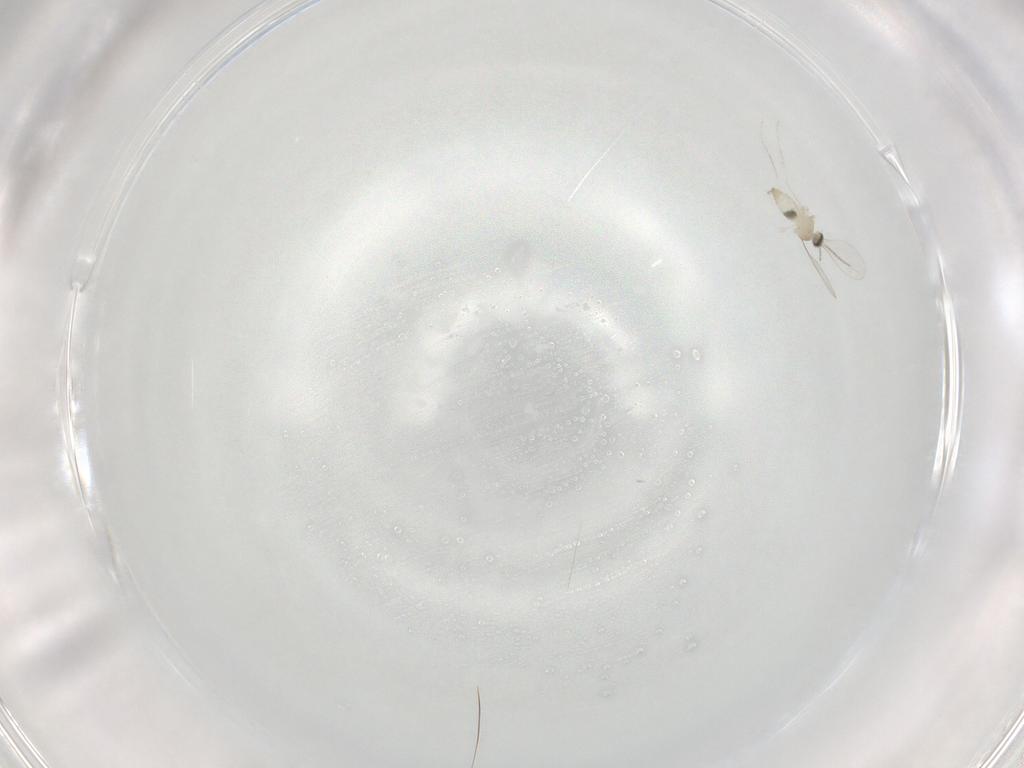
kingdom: Animalia
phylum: Arthropoda
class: Insecta
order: Diptera
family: Cecidomyiidae
